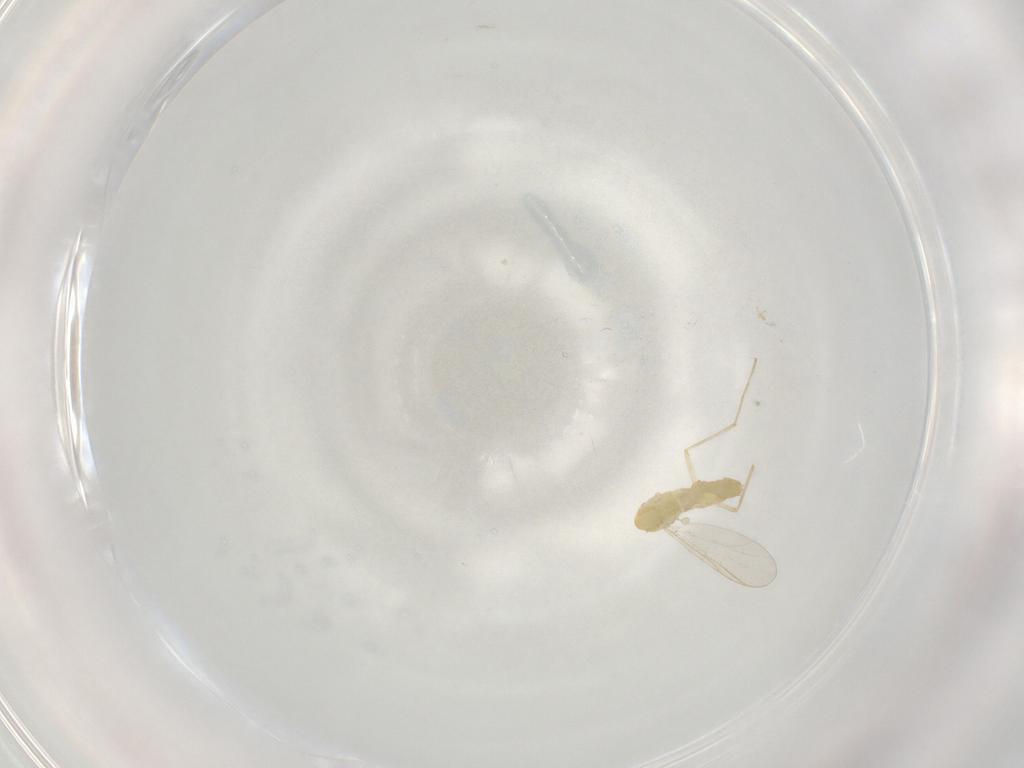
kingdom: Animalia
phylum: Arthropoda
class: Insecta
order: Diptera
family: Chironomidae
